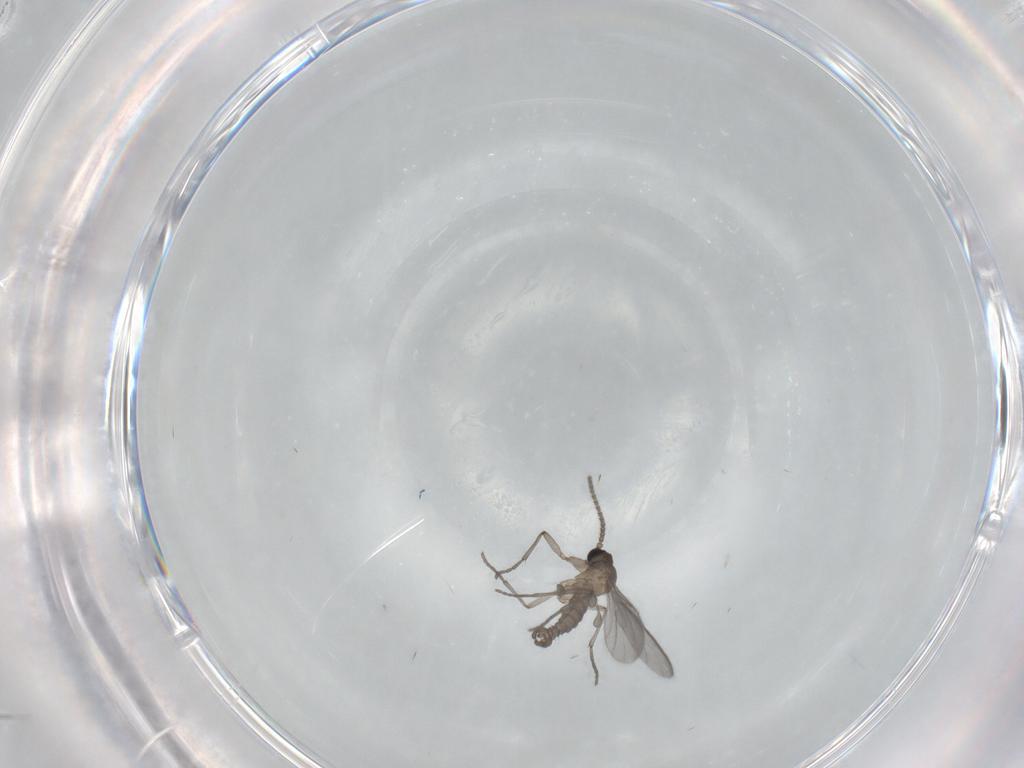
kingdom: Animalia
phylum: Arthropoda
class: Insecta
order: Diptera
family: Sciaridae
